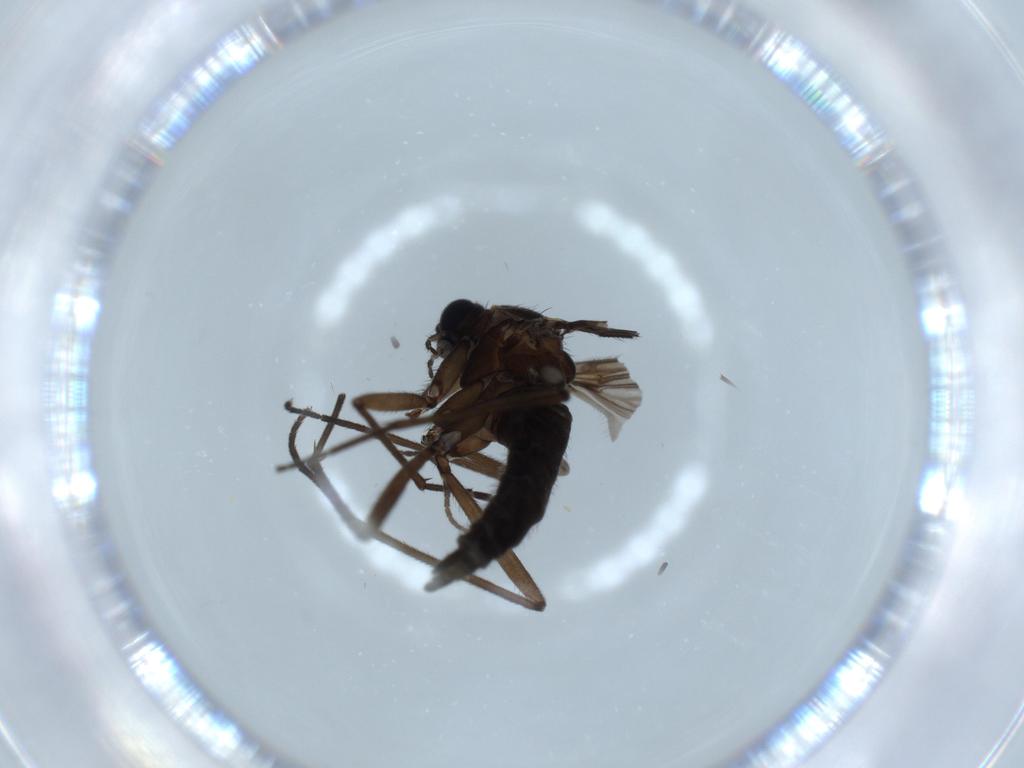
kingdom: Animalia
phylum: Arthropoda
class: Insecta
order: Diptera
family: Sciaridae
